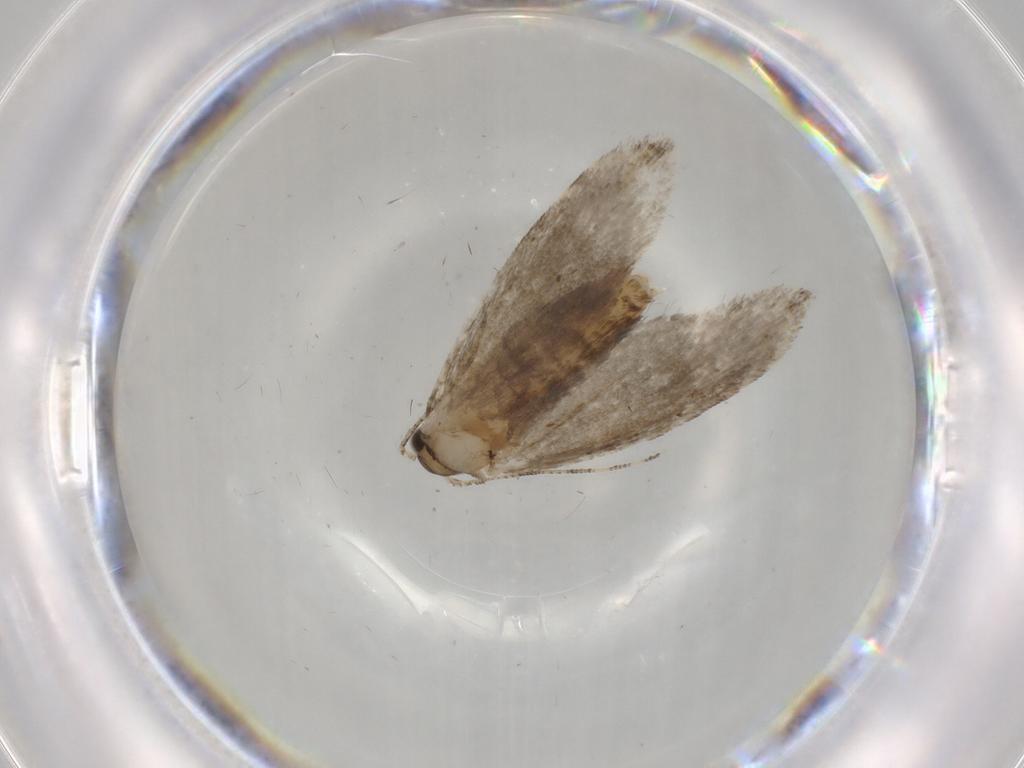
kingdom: Animalia
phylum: Arthropoda
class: Insecta
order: Lepidoptera
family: Tineidae
